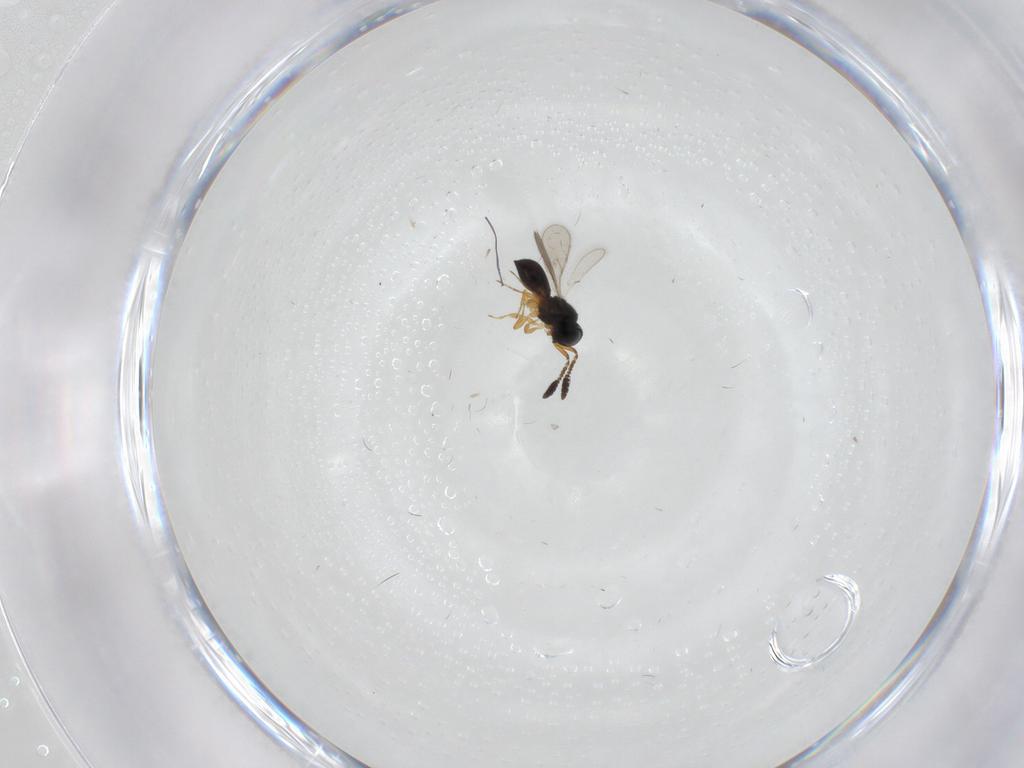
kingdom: Animalia
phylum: Arthropoda
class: Insecta
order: Hymenoptera
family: Scelionidae
